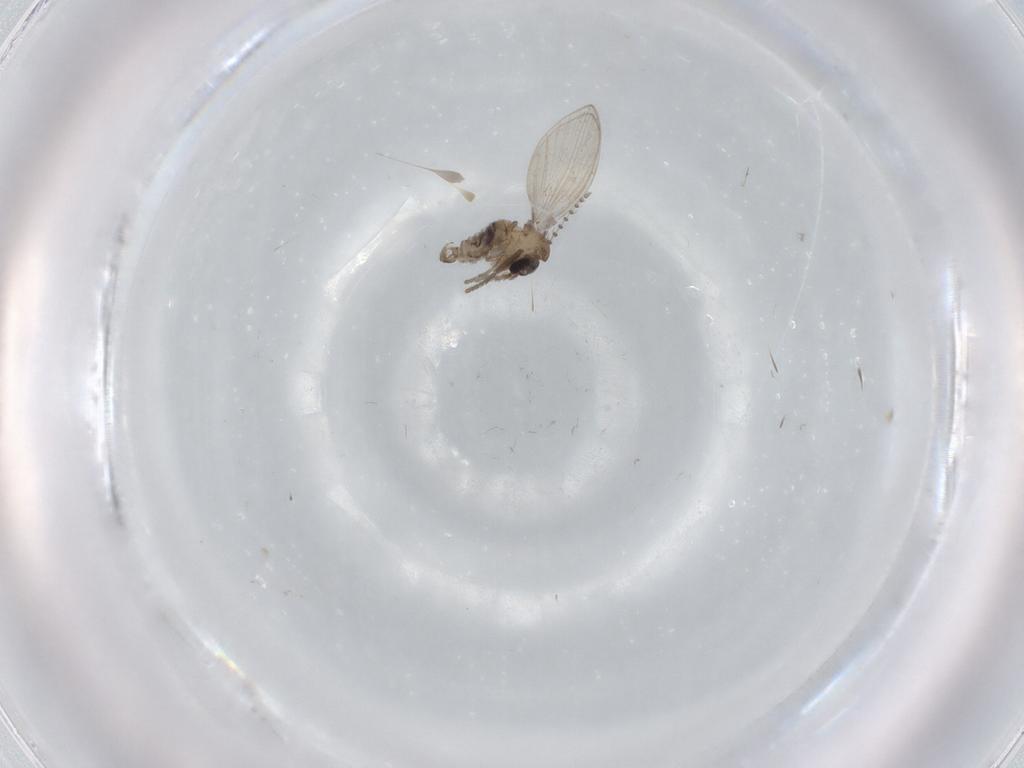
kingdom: Animalia
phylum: Arthropoda
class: Insecta
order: Diptera
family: Psychodidae
